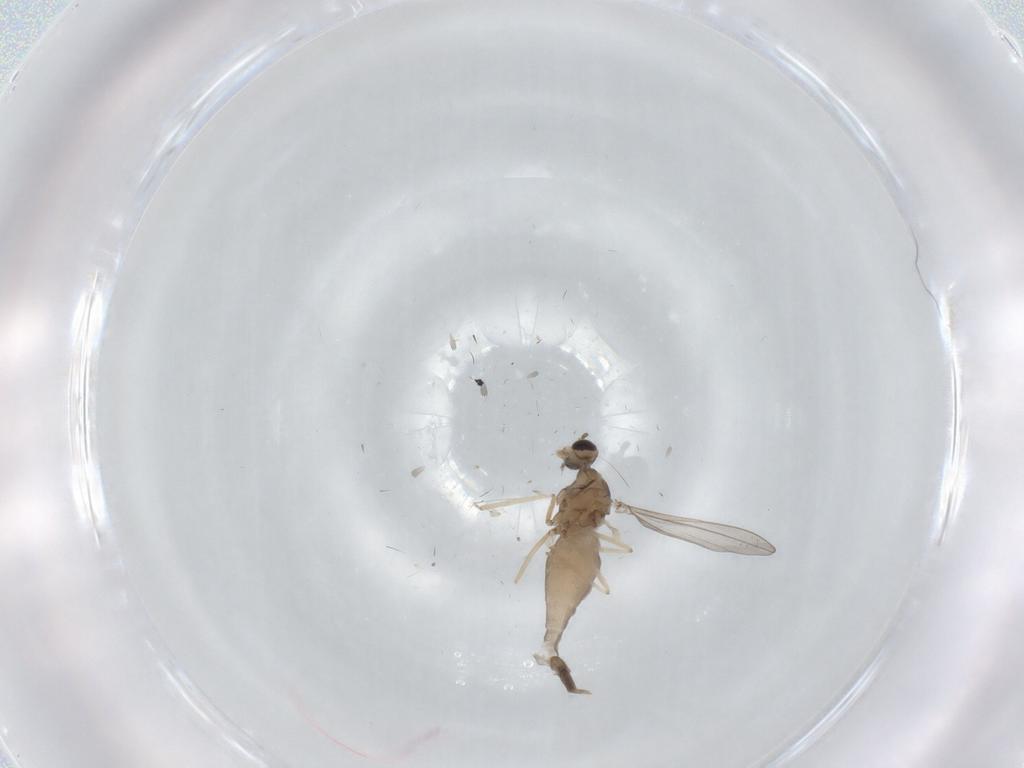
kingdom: Animalia
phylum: Arthropoda
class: Insecta
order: Diptera
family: Cecidomyiidae
